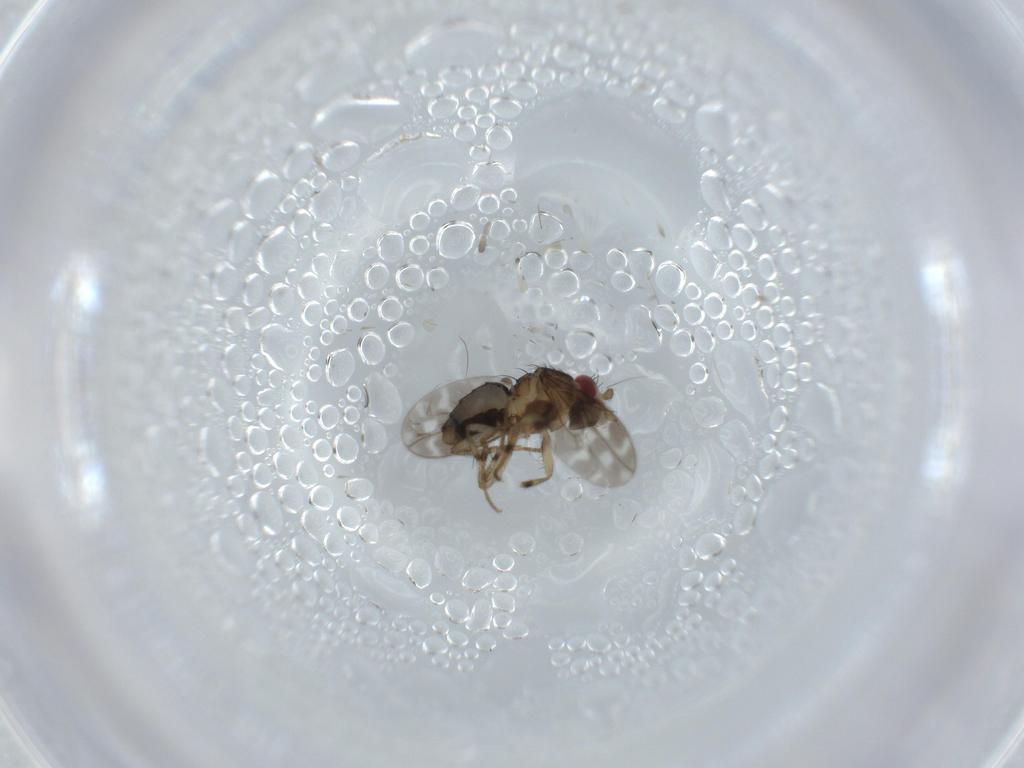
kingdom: Animalia
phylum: Arthropoda
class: Insecta
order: Diptera
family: Sphaeroceridae
